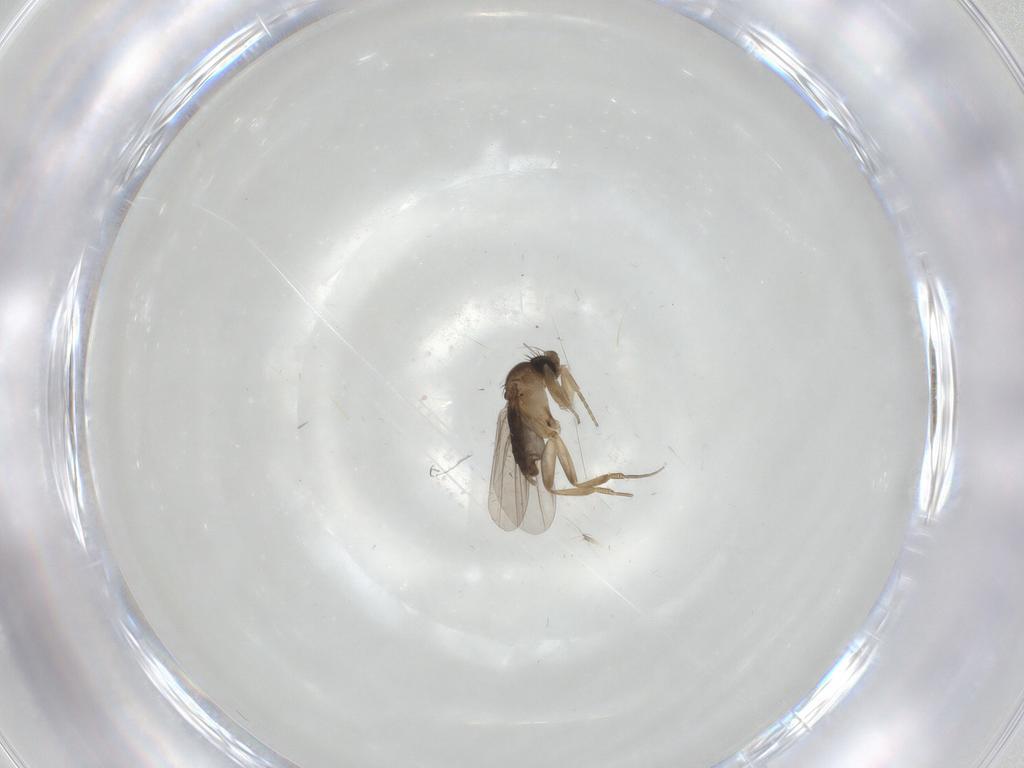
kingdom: Animalia
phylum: Arthropoda
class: Insecta
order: Diptera
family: Phoridae
